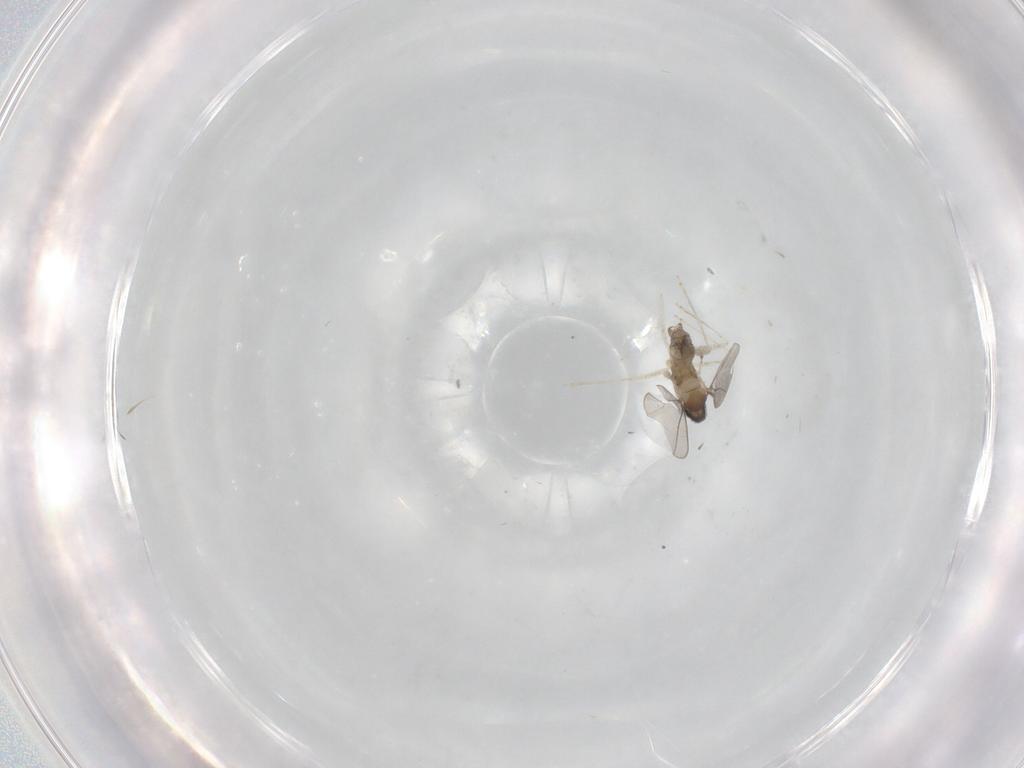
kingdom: Animalia
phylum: Arthropoda
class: Insecta
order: Diptera
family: Cecidomyiidae
